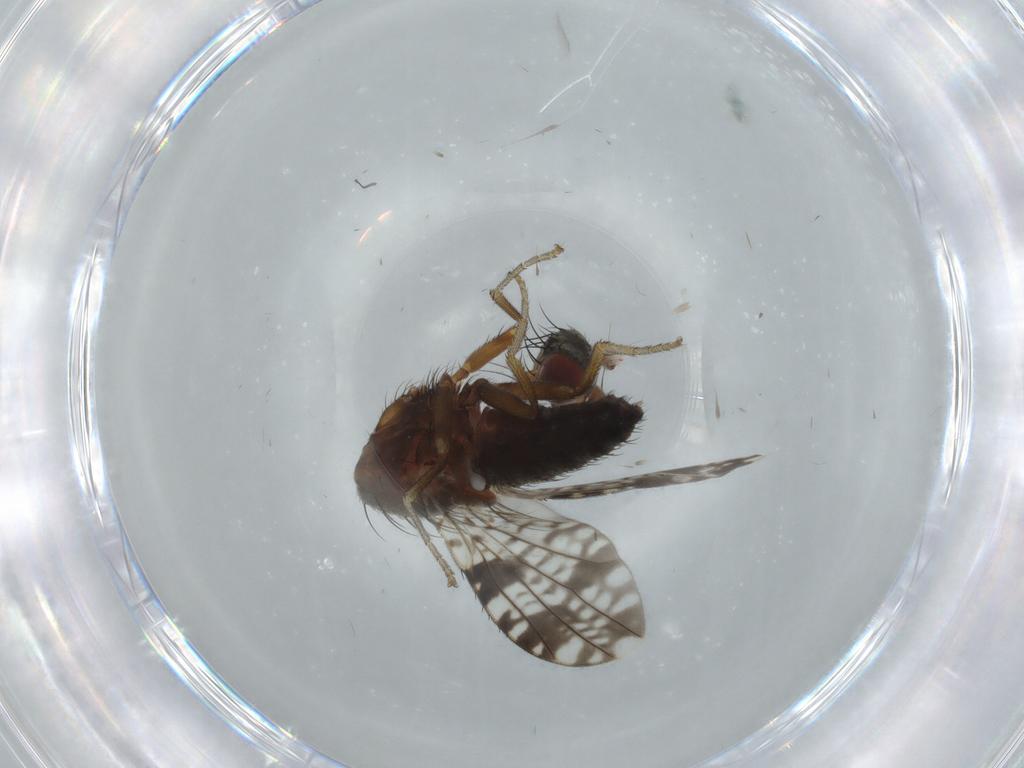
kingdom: Animalia
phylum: Arthropoda
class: Insecta
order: Diptera
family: Tephritidae
